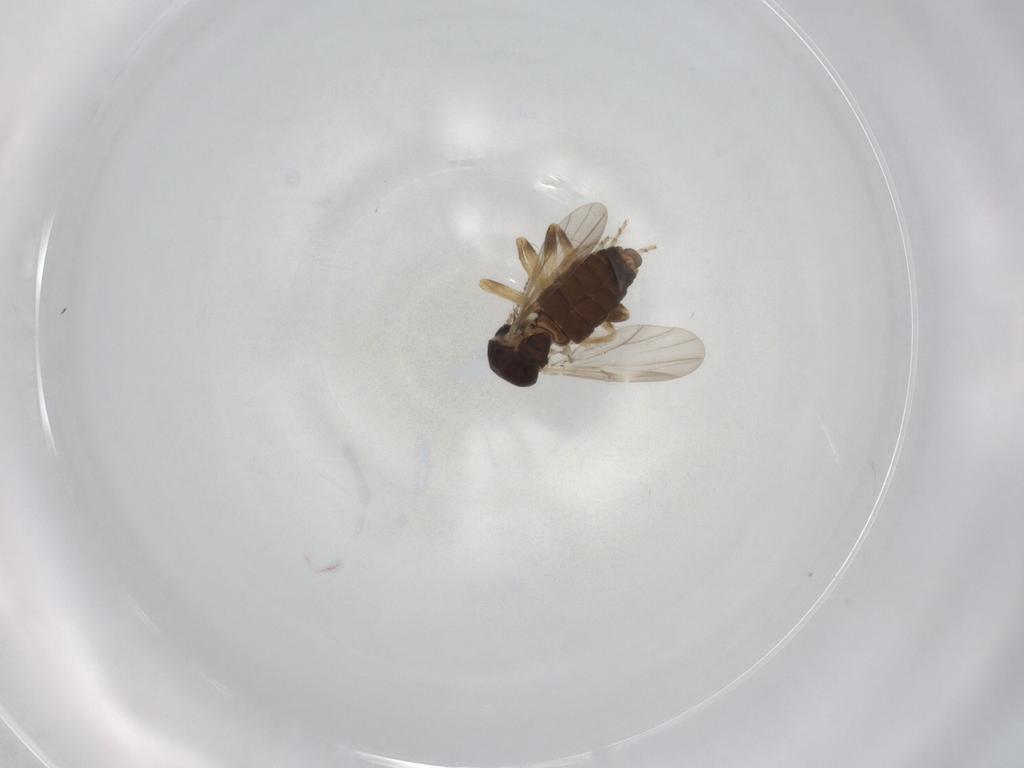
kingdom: Animalia
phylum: Arthropoda
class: Insecta
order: Diptera
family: Ceratopogonidae
